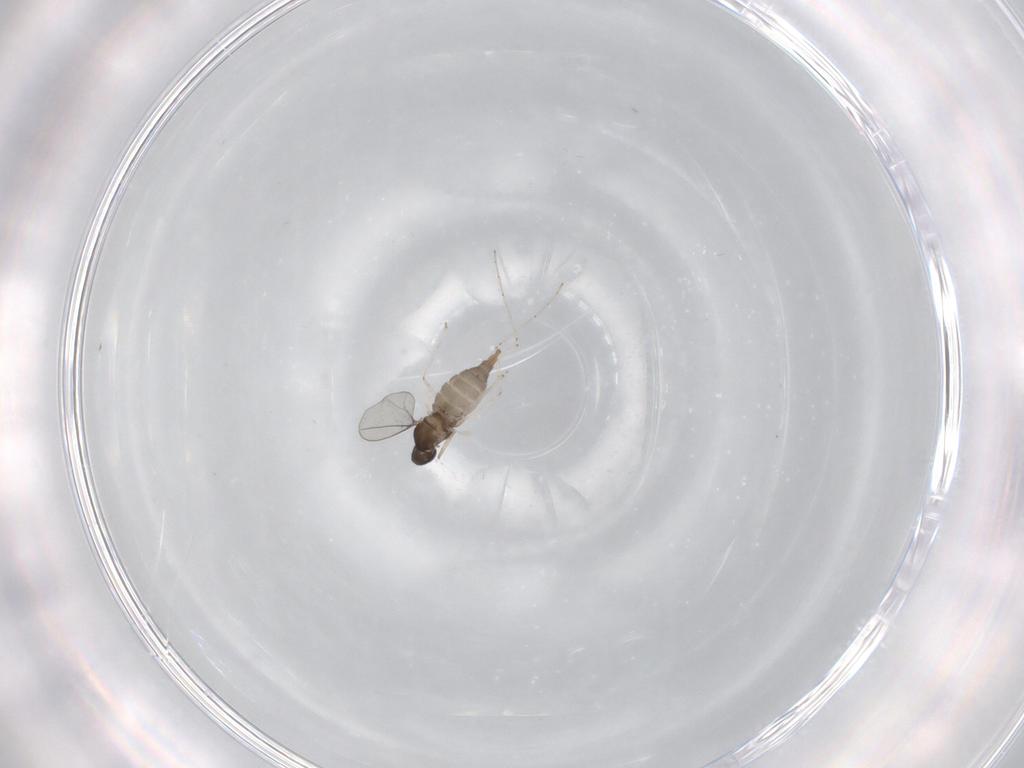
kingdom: Animalia
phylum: Arthropoda
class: Insecta
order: Diptera
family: Cecidomyiidae
